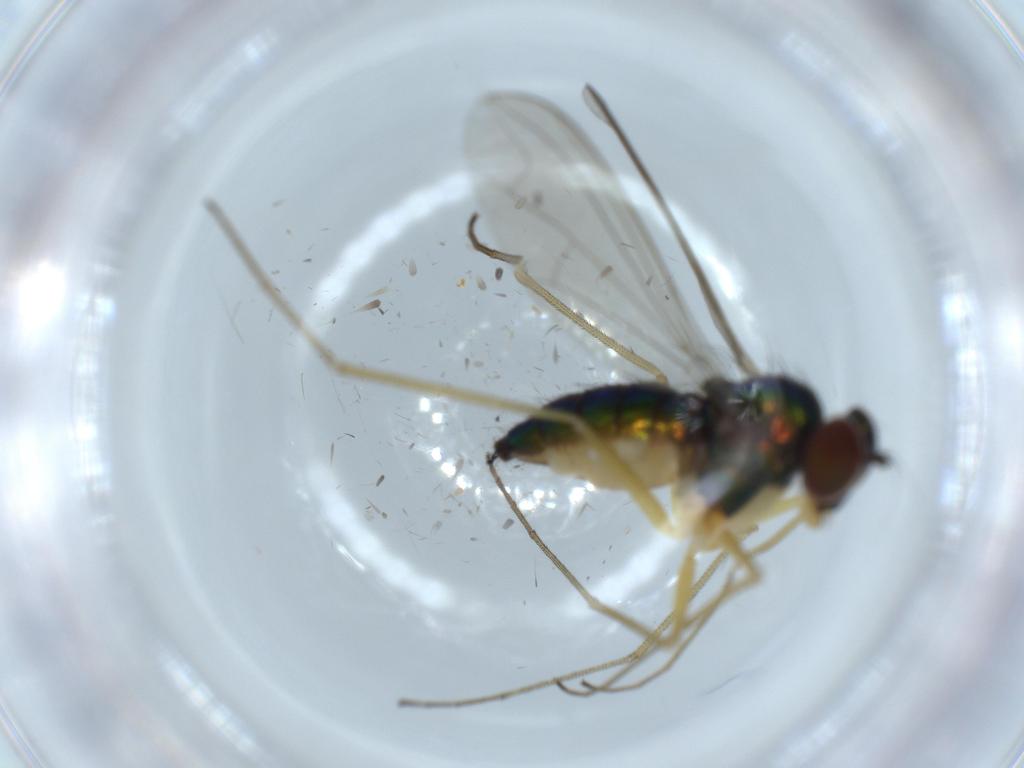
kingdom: Animalia
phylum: Arthropoda
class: Insecta
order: Diptera
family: Dolichopodidae
